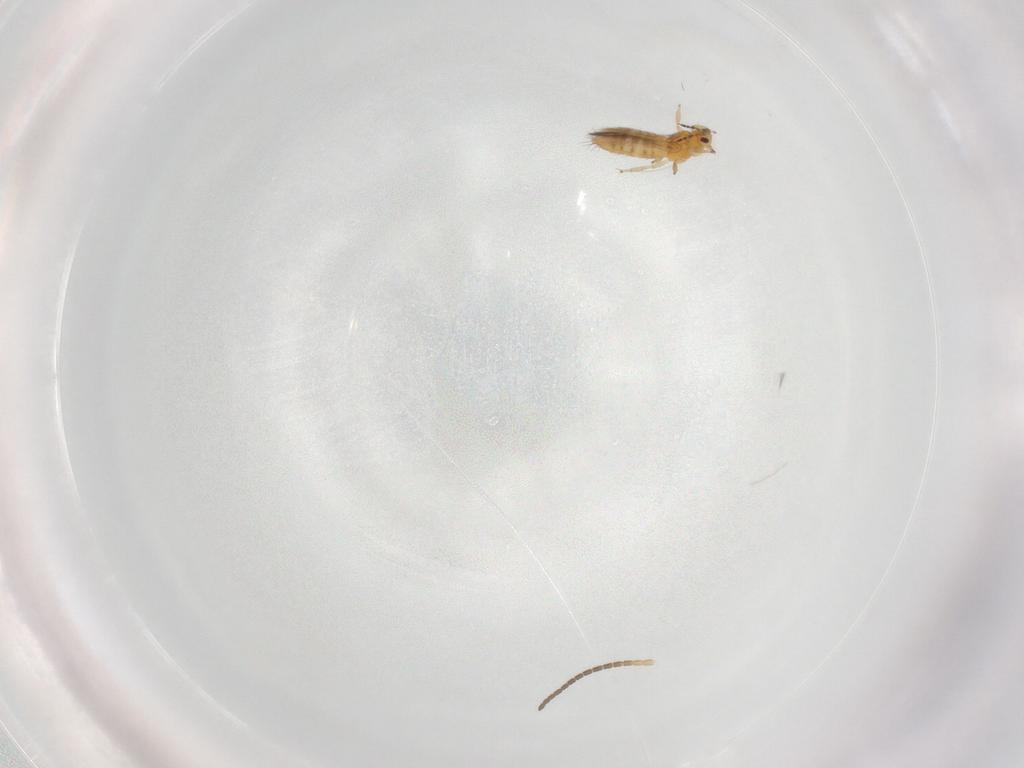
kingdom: Animalia
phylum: Arthropoda
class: Insecta
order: Thysanoptera
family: Thripidae
